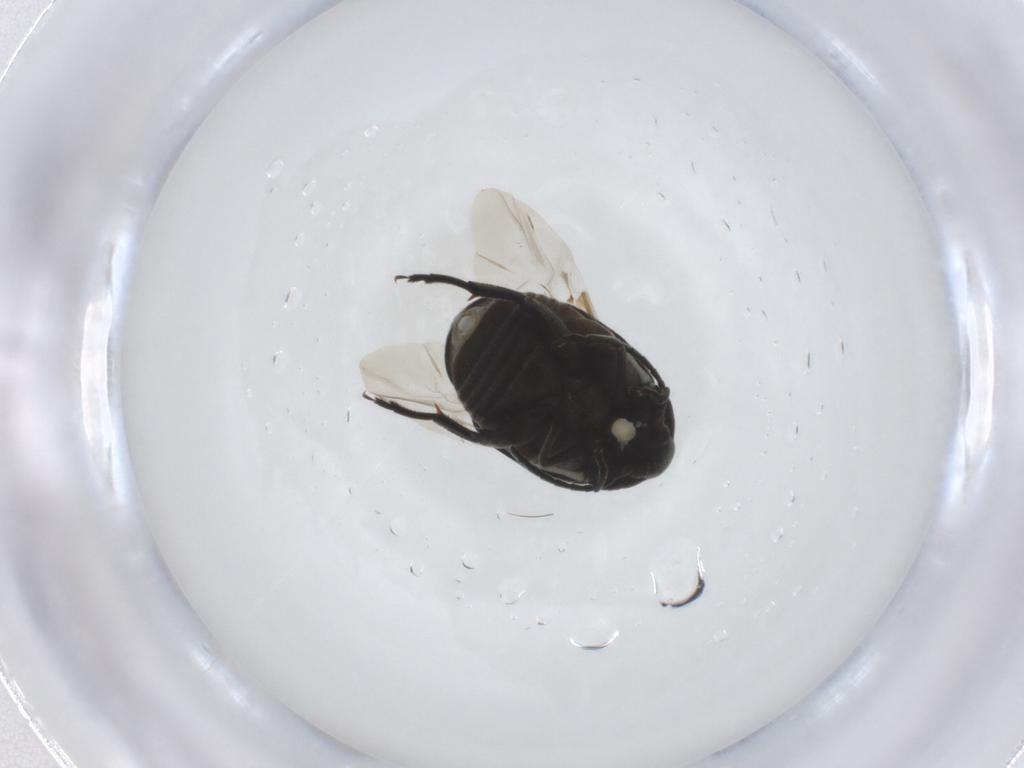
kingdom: Animalia
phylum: Arthropoda
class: Insecta
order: Coleoptera
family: Chrysomelidae
